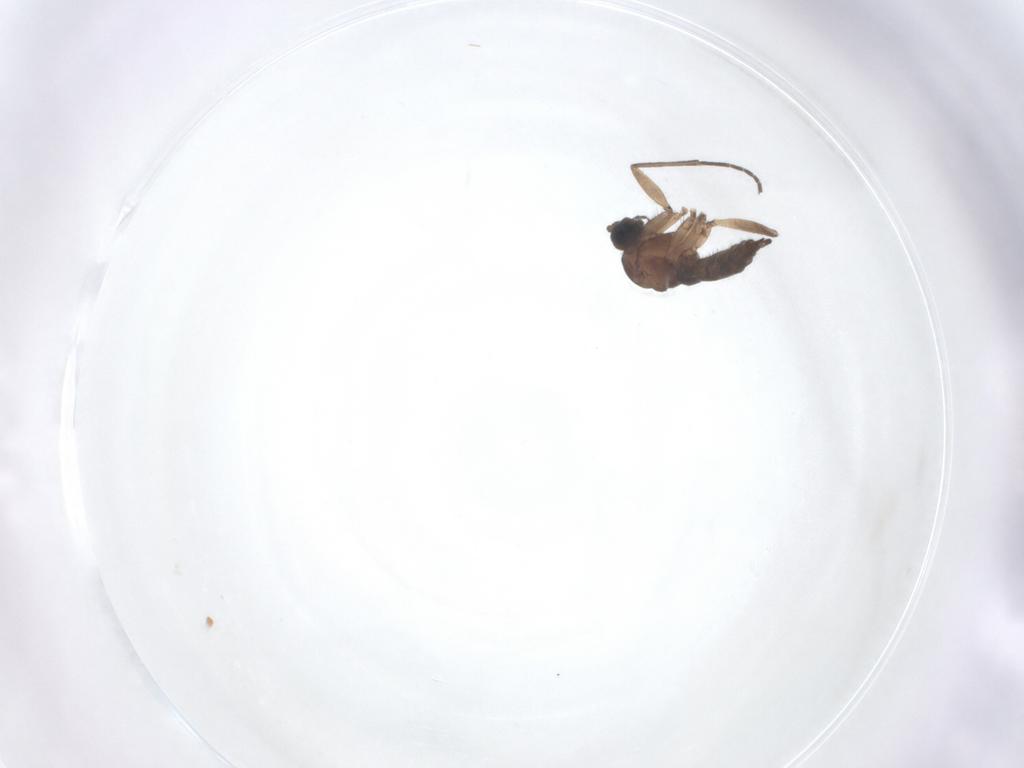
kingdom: Animalia
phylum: Arthropoda
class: Insecta
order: Diptera
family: Sciaridae
